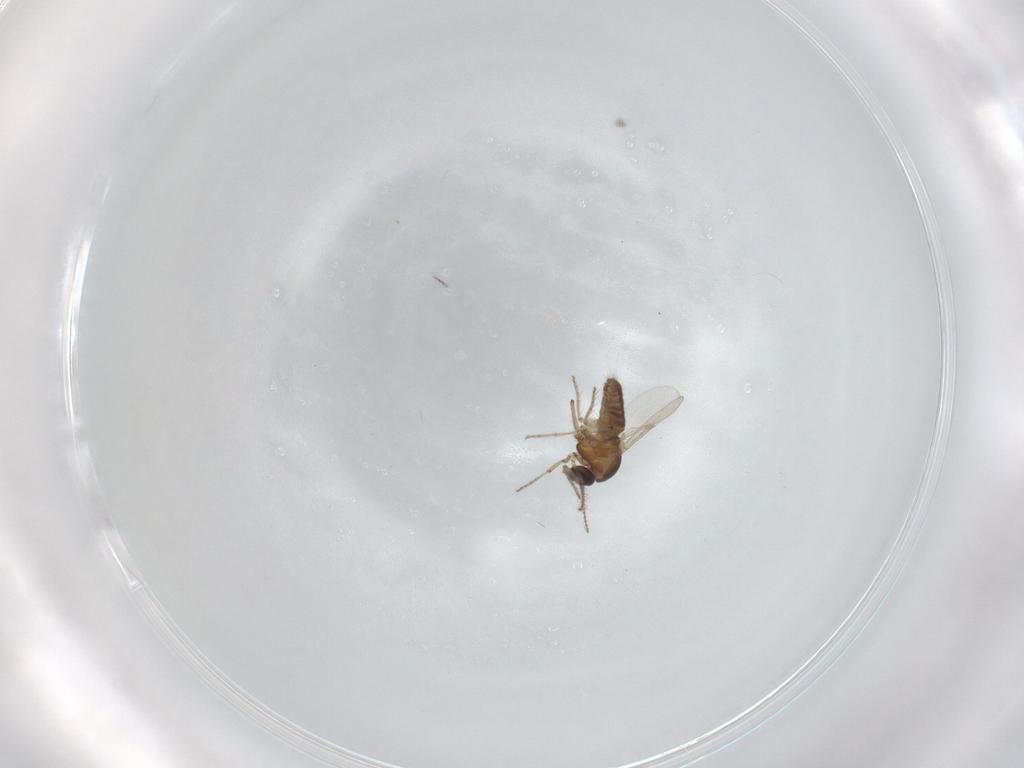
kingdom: Animalia
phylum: Arthropoda
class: Insecta
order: Diptera
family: Ceratopogonidae
